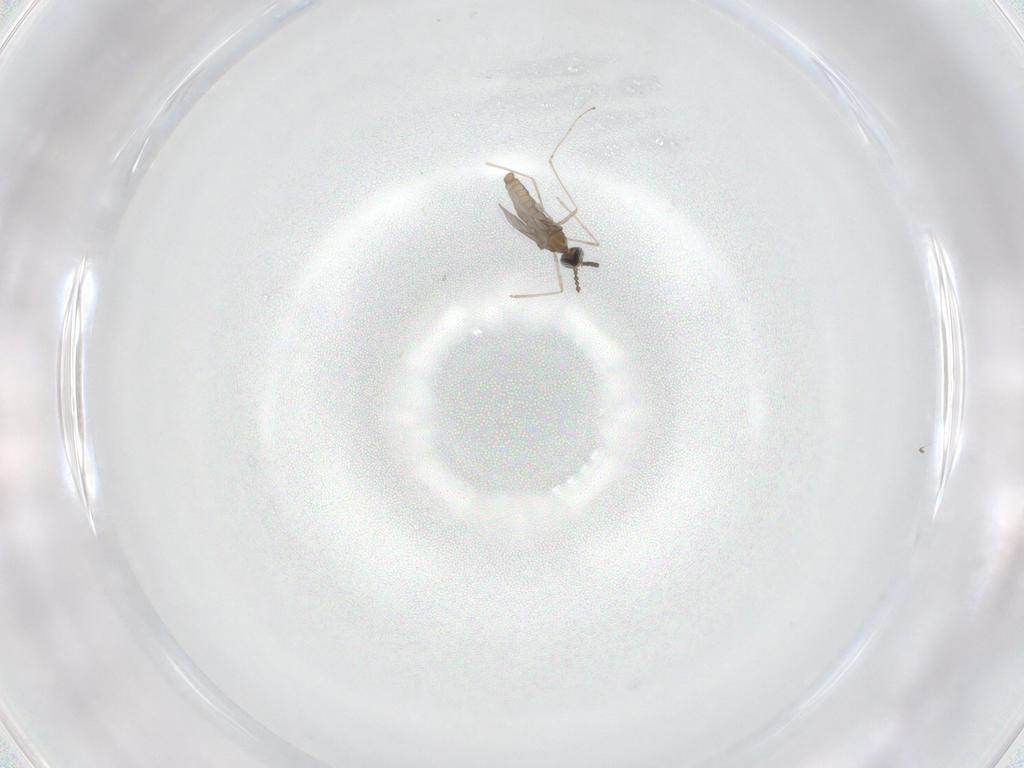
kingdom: Animalia
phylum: Arthropoda
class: Insecta
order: Diptera
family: Cecidomyiidae
